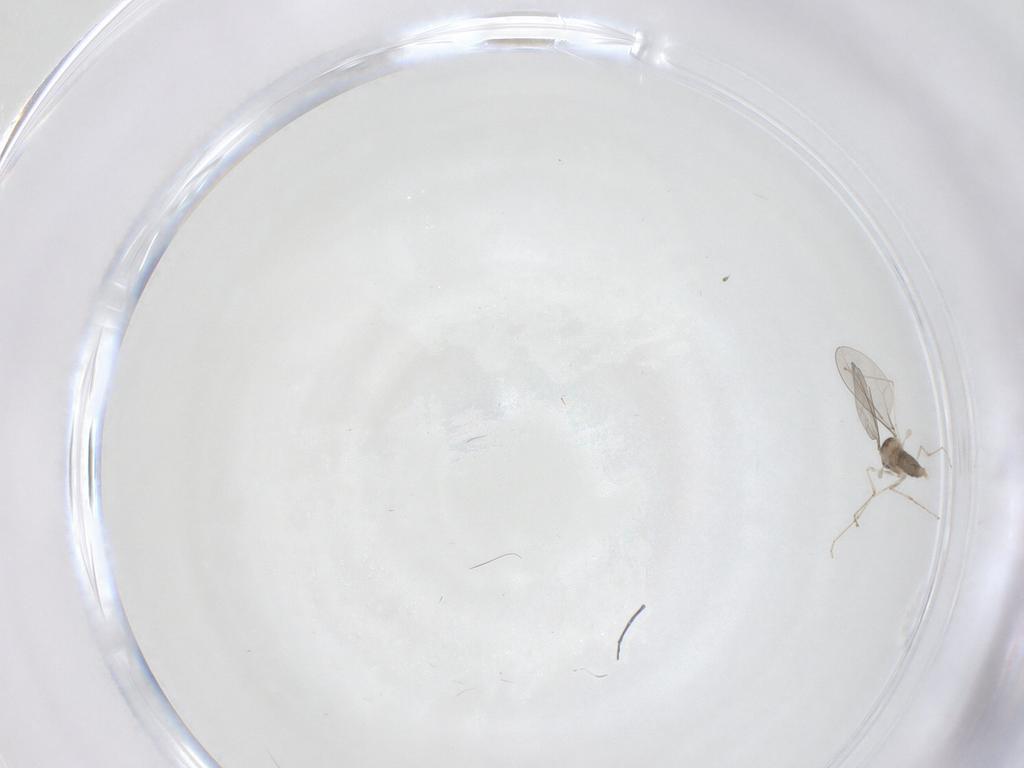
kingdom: Animalia
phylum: Arthropoda
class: Insecta
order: Diptera
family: Cecidomyiidae
